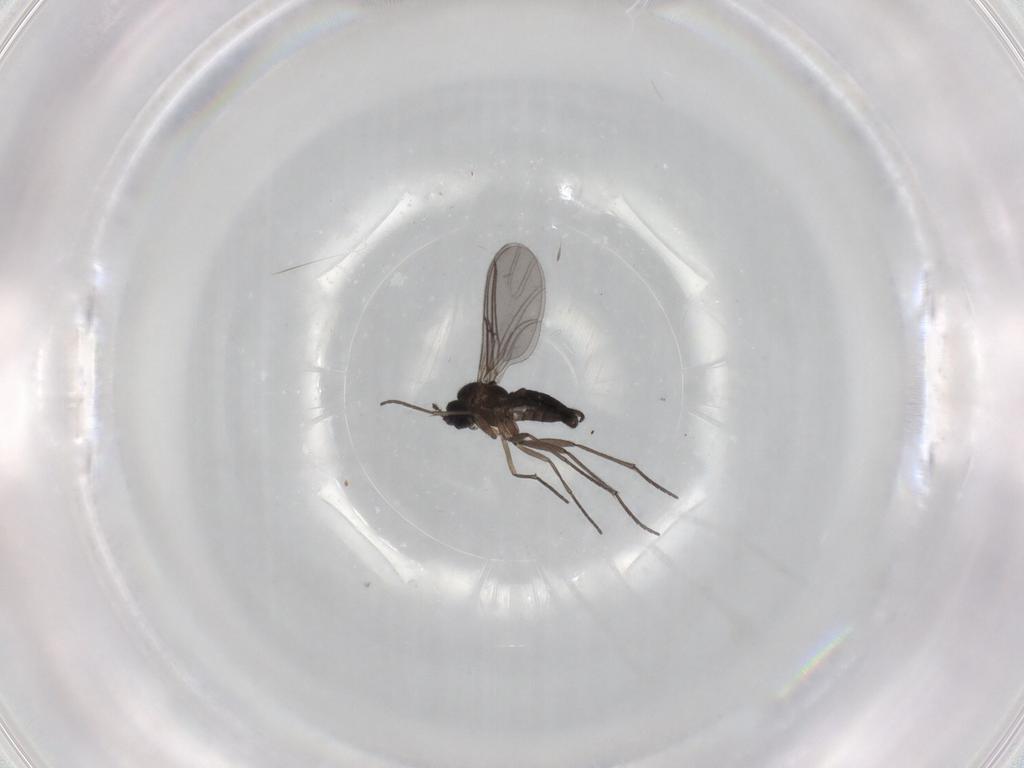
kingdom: Animalia
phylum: Arthropoda
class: Insecta
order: Diptera
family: Sciaridae
